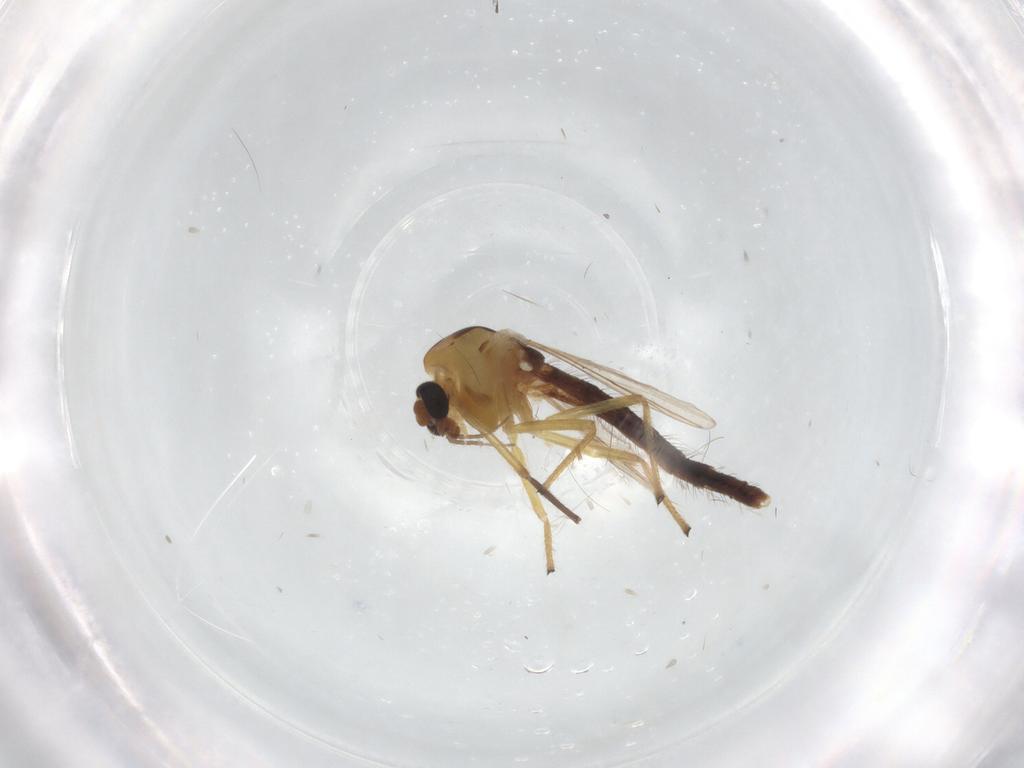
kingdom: Animalia
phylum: Arthropoda
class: Insecta
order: Diptera
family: Chironomidae
